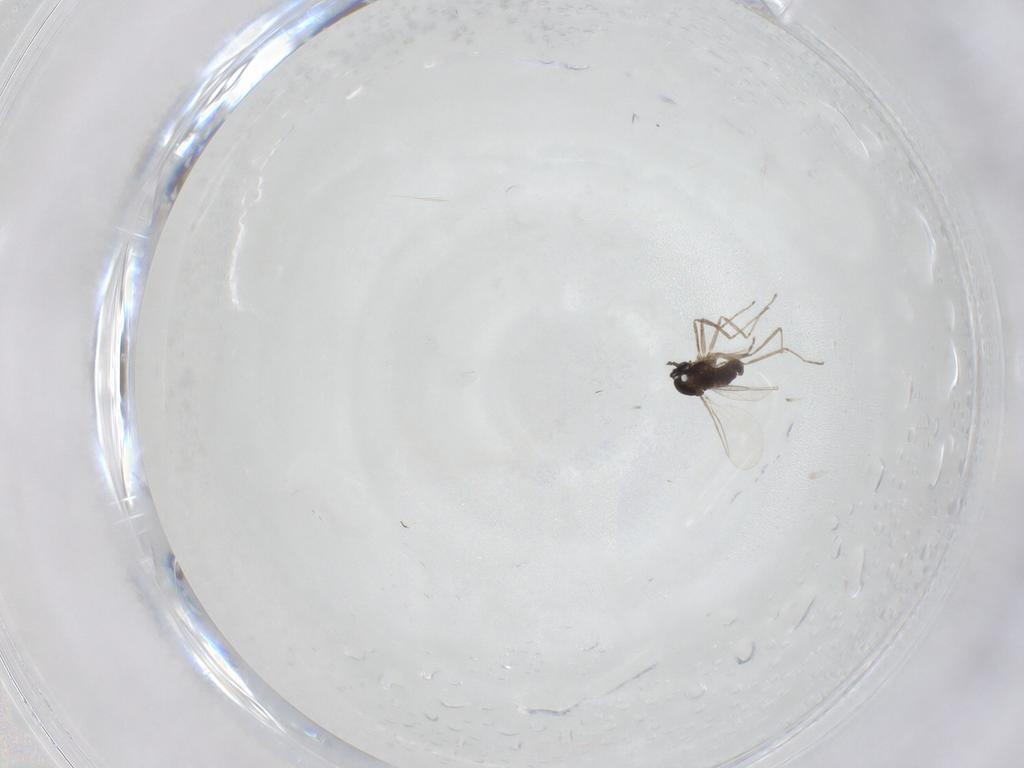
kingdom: Animalia
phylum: Arthropoda
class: Insecta
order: Diptera
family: Cecidomyiidae
